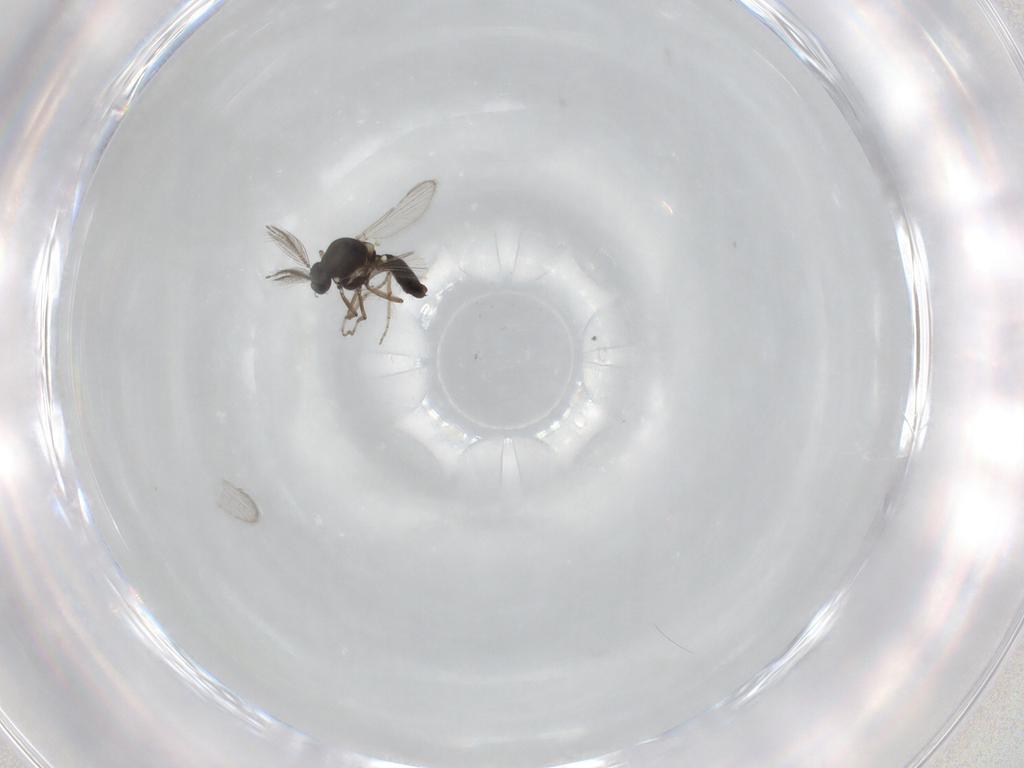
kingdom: Animalia
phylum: Arthropoda
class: Insecta
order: Diptera
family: Ceratopogonidae
